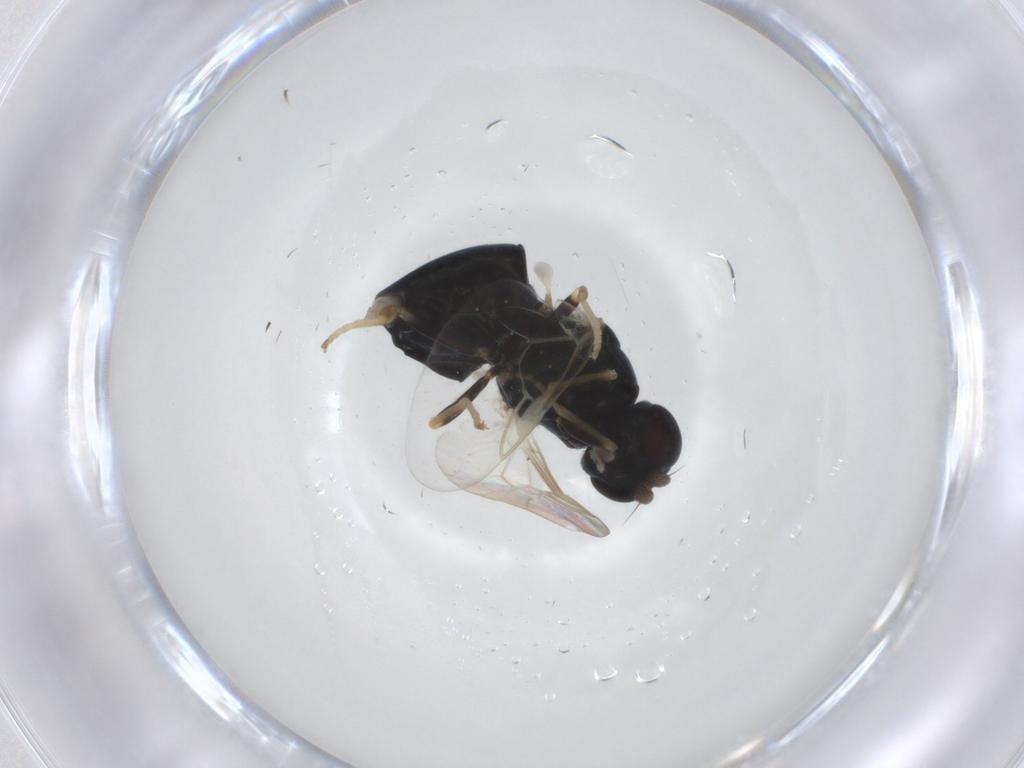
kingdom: Animalia
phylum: Arthropoda
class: Insecta
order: Diptera
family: Stratiomyidae
